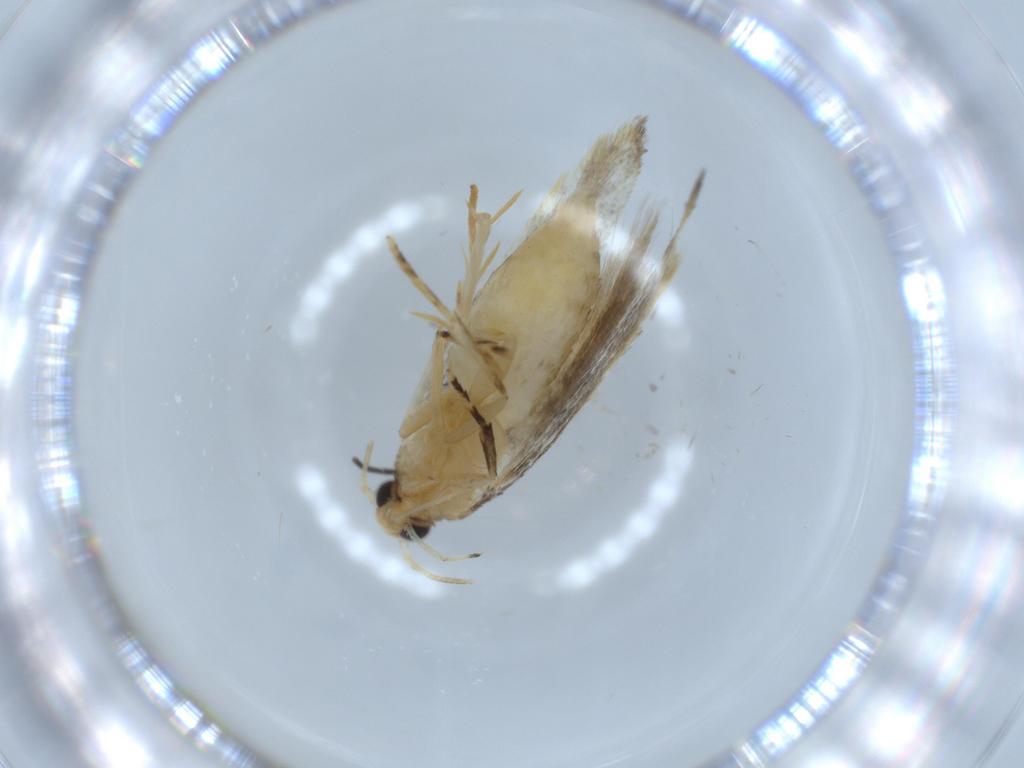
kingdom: Animalia
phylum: Arthropoda
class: Insecta
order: Lepidoptera
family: Autostichidae
